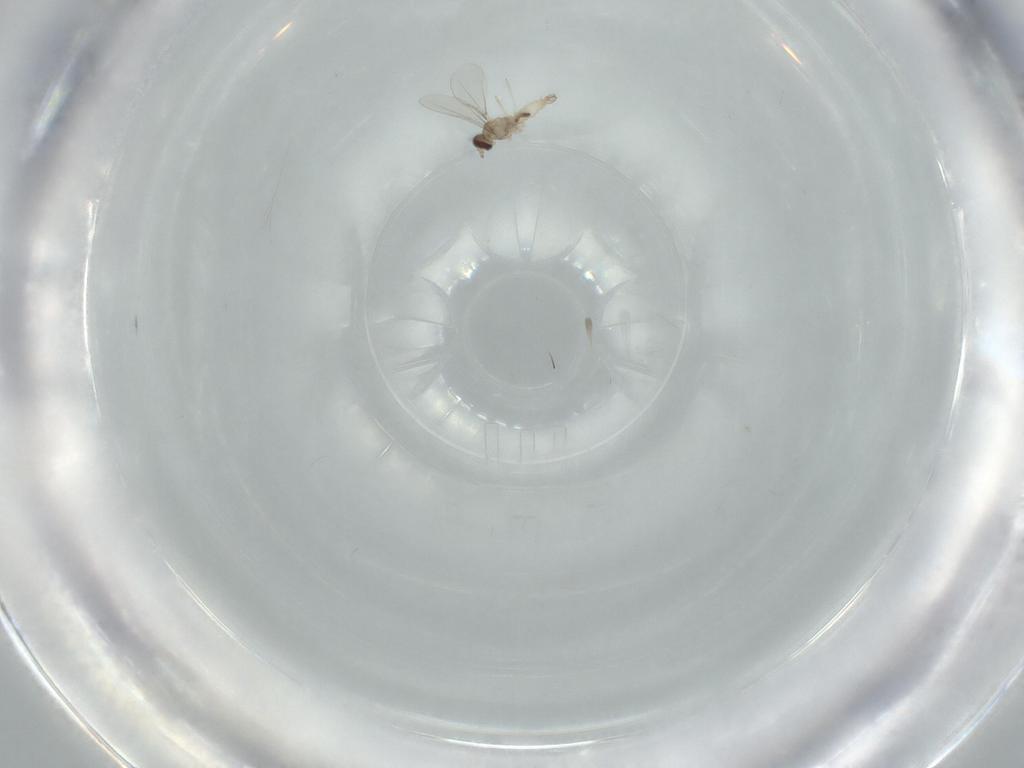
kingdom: Animalia
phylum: Arthropoda
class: Insecta
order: Diptera
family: Cecidomyiidae
